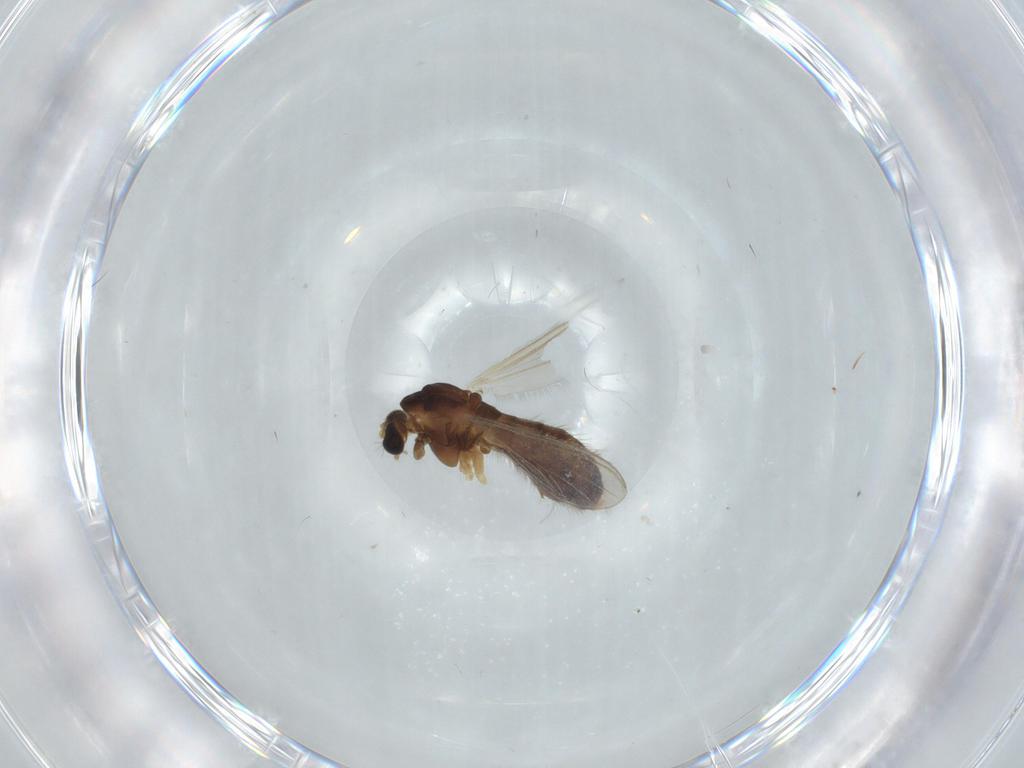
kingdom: Animalia
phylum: Arthropoda
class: Insecta
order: Diptera
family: Chironomidae
